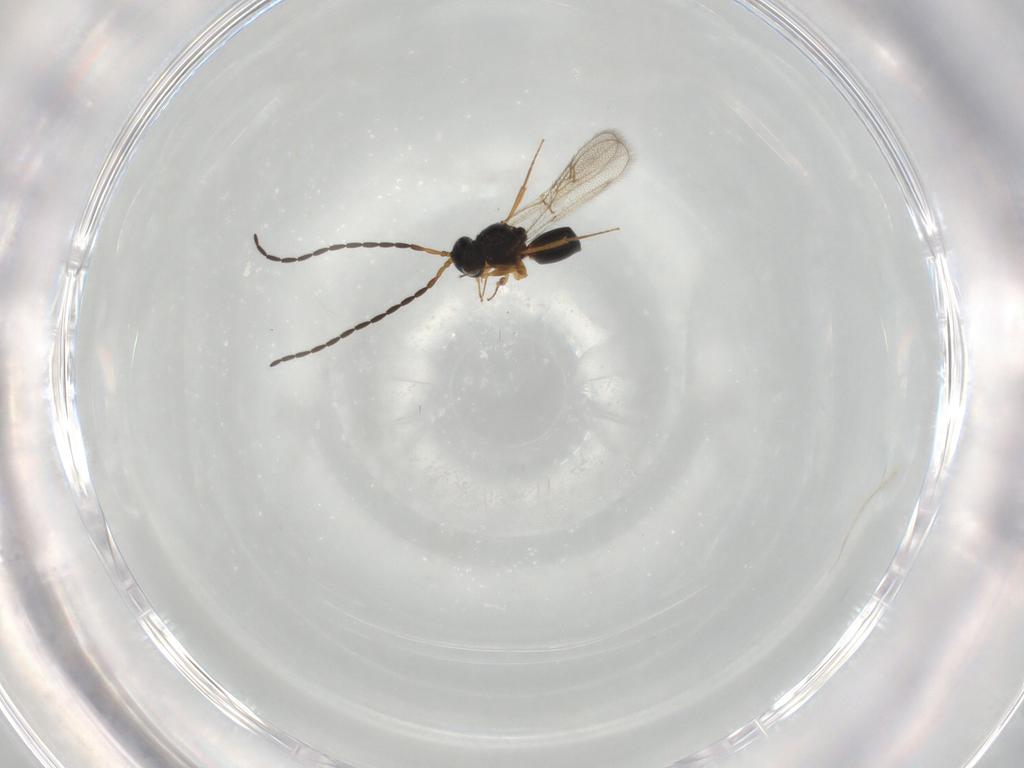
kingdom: Animalia
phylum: Arthropoda
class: Insecta
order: Hymenoptera
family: Figitidae
